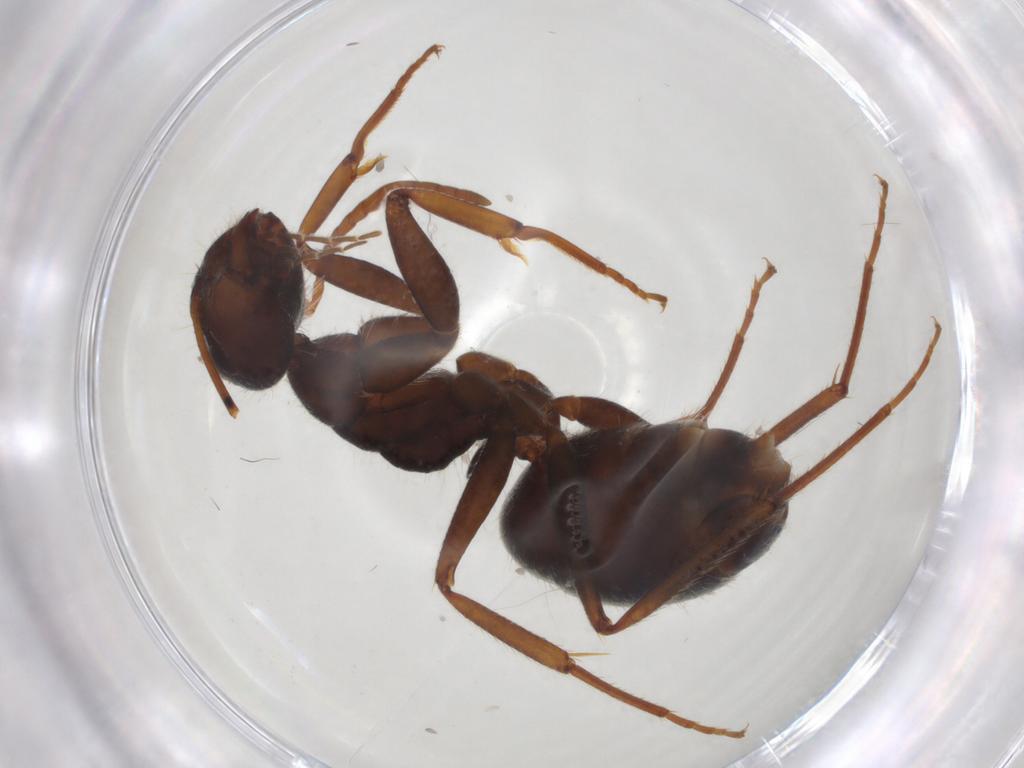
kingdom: Animalia
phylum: Arthropoda
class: Insecta
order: Hymenoptera
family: Formicidae
